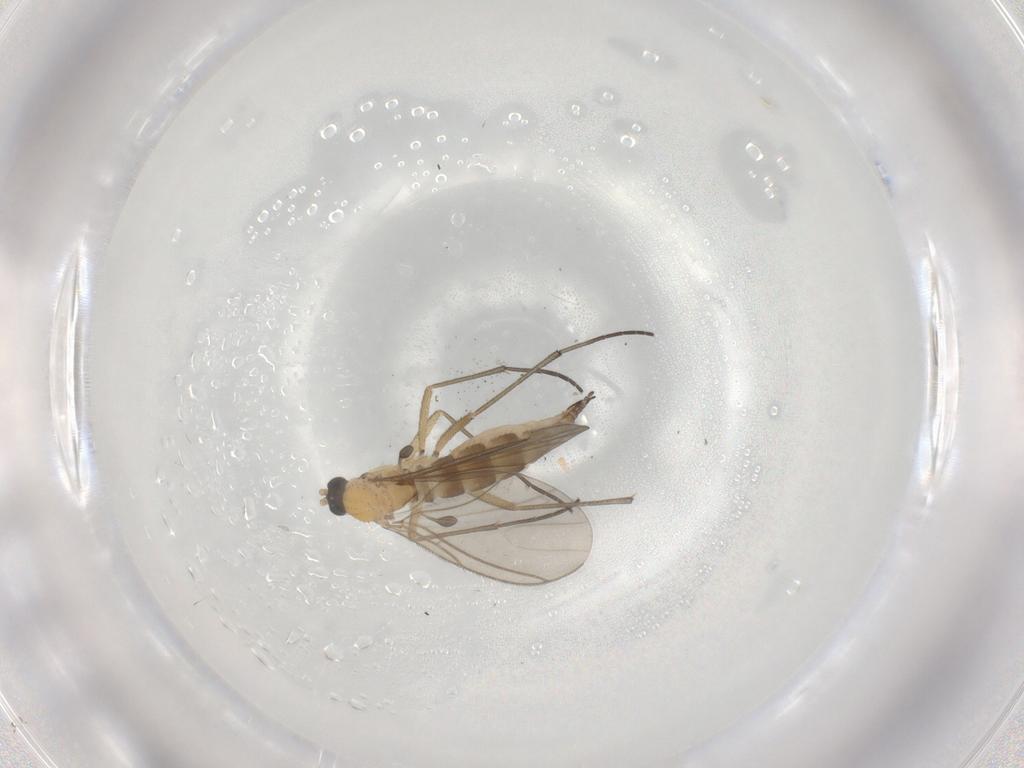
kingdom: Animalia
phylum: Arthropoda
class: Insecta
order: Diptera
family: Sciaridae
